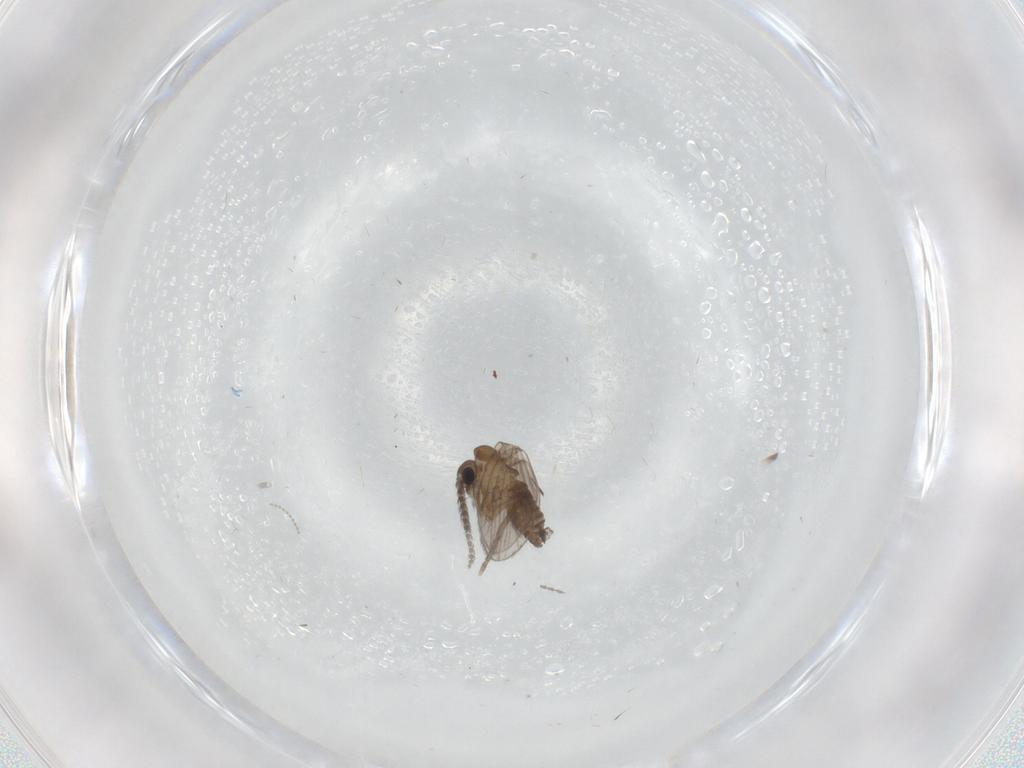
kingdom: Animalia
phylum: Arthropoda
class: Insecta
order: Diptera
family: Cecidomyiidae
